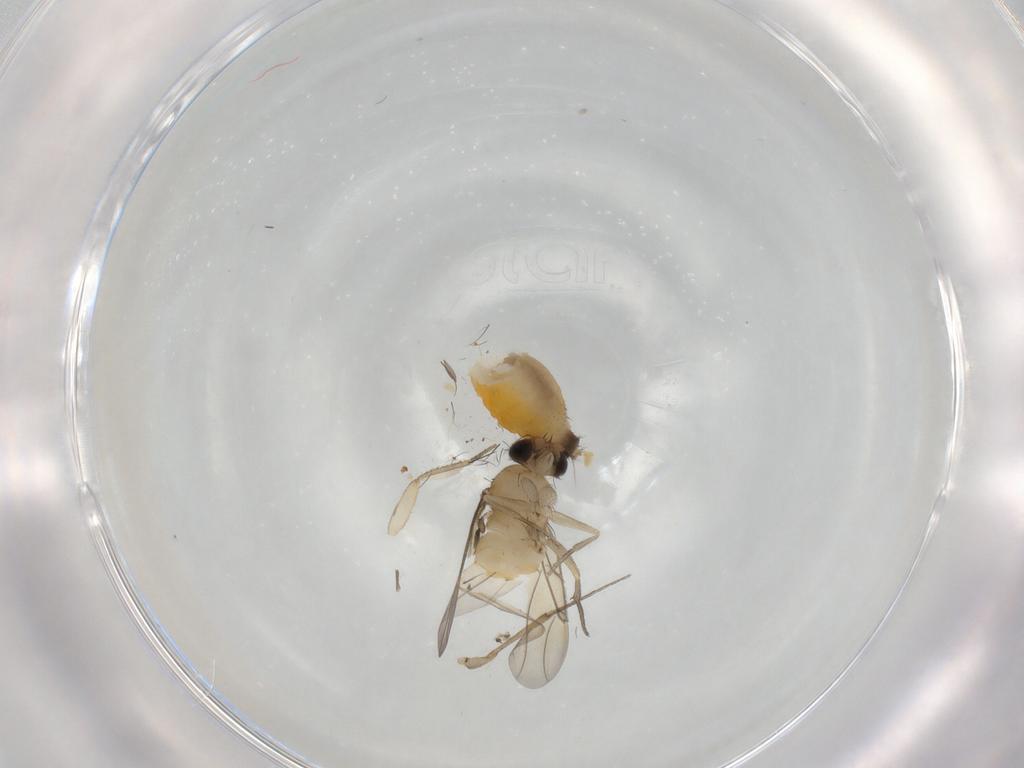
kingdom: Animalia
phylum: Arthropoda
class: Insecta
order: Diptera
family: Phoridae
